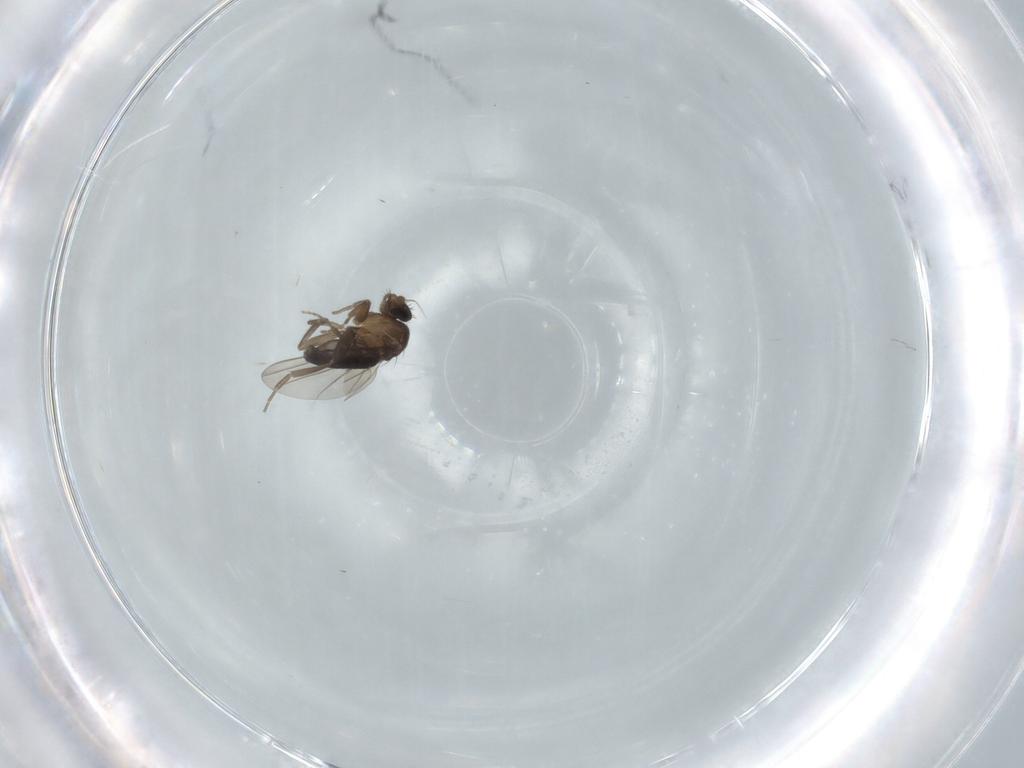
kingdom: Animalia
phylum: Arthropoda
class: Insecta
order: Diptera
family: Phoridae
